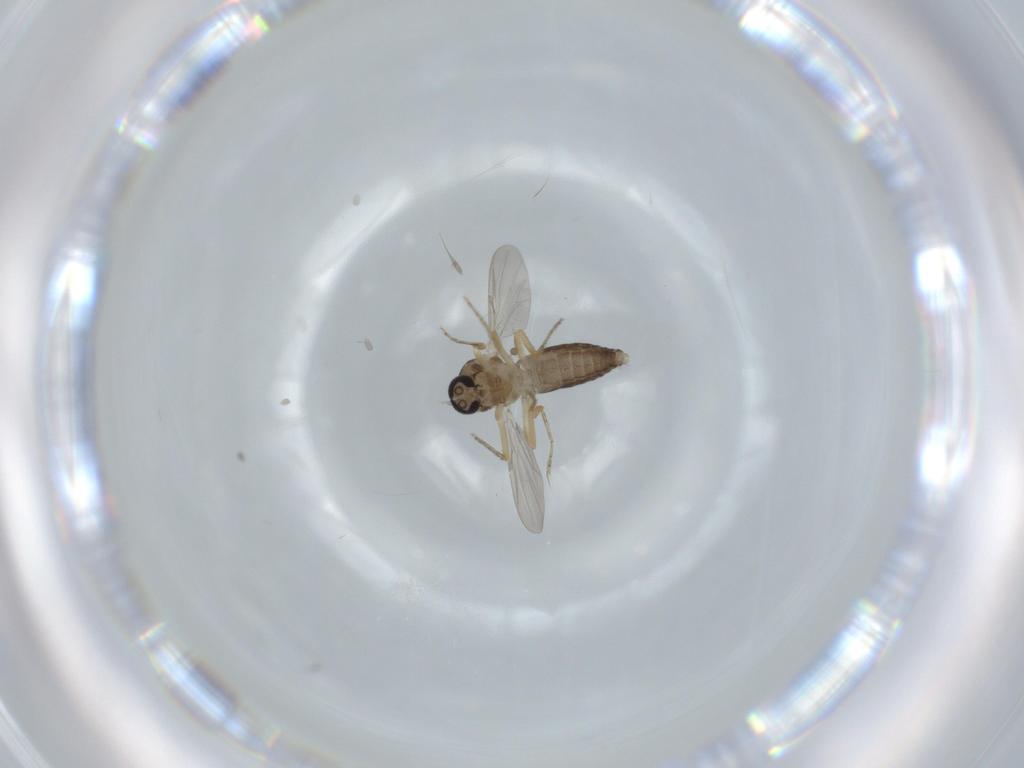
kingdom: Animalia
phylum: Arthropoda
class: Insecta
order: Diptera
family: Ceratopogonidae
